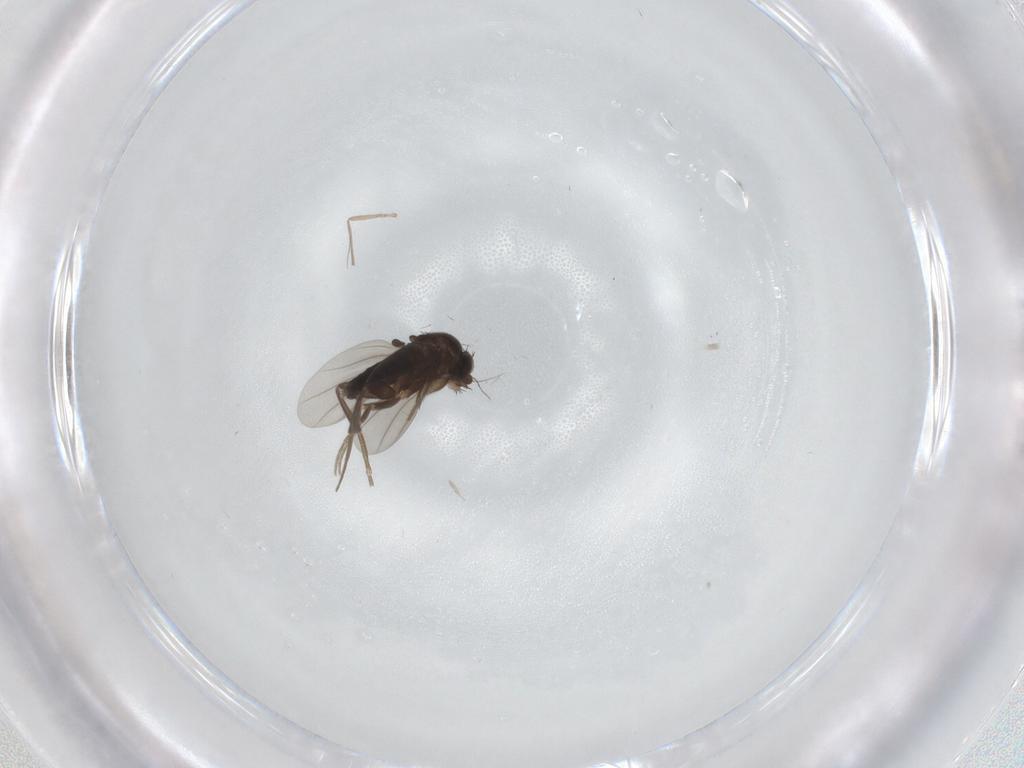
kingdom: Animalia
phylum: Arthropoda
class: Insecta
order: Diptera
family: Phoridae
